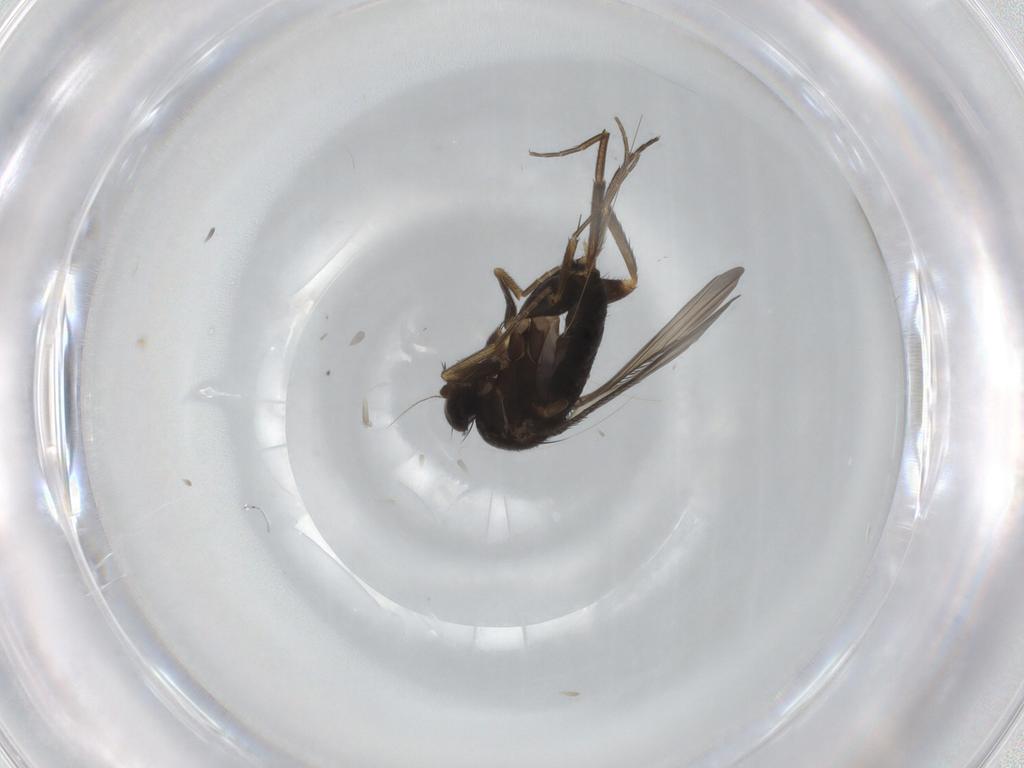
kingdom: Animalia
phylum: Arthropoda
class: Insecta
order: Diptera
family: Phoridae
